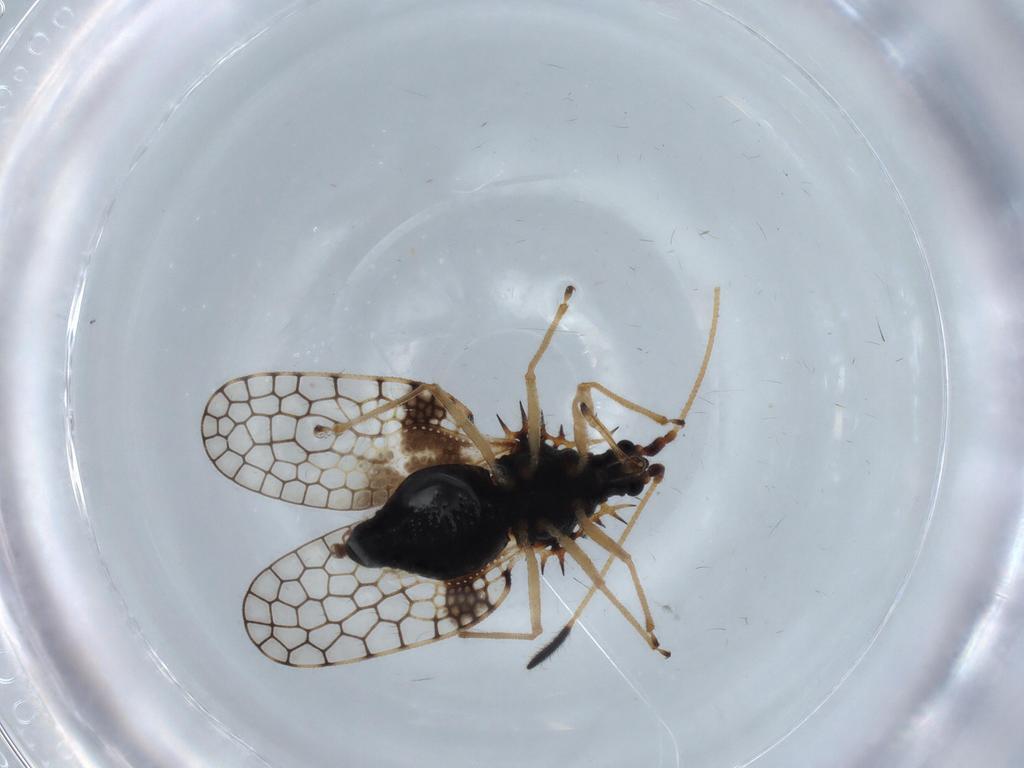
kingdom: Animalia
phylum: Arthropoda
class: Insecta
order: Hemiptera
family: Tingidae
